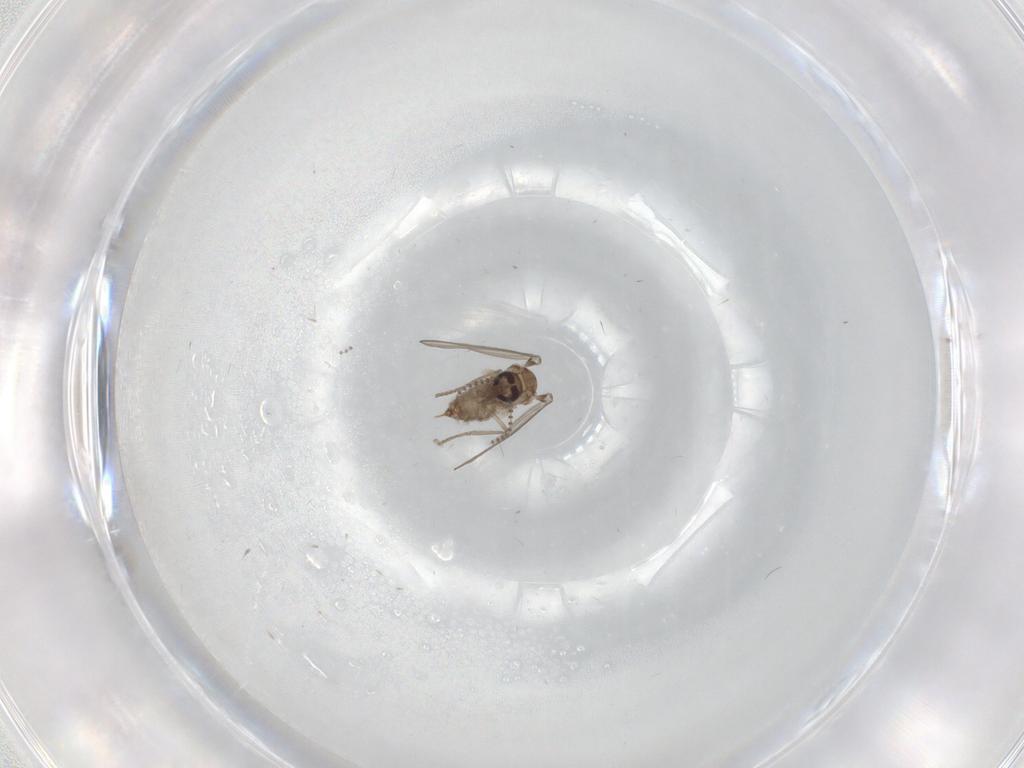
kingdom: Animalia
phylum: Arthropoda
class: Insecta
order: Diptera
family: Psychodidae
